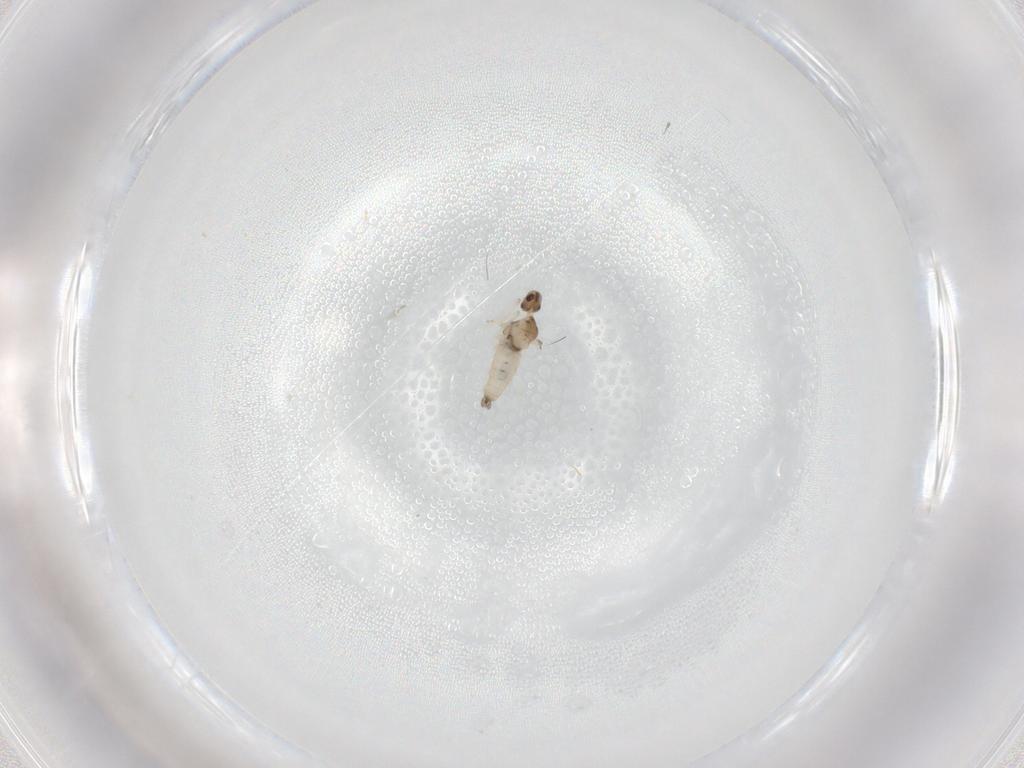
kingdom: Animalia
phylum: Arthropoda
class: Insecta
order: Diptera
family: Cecidomyiidae
